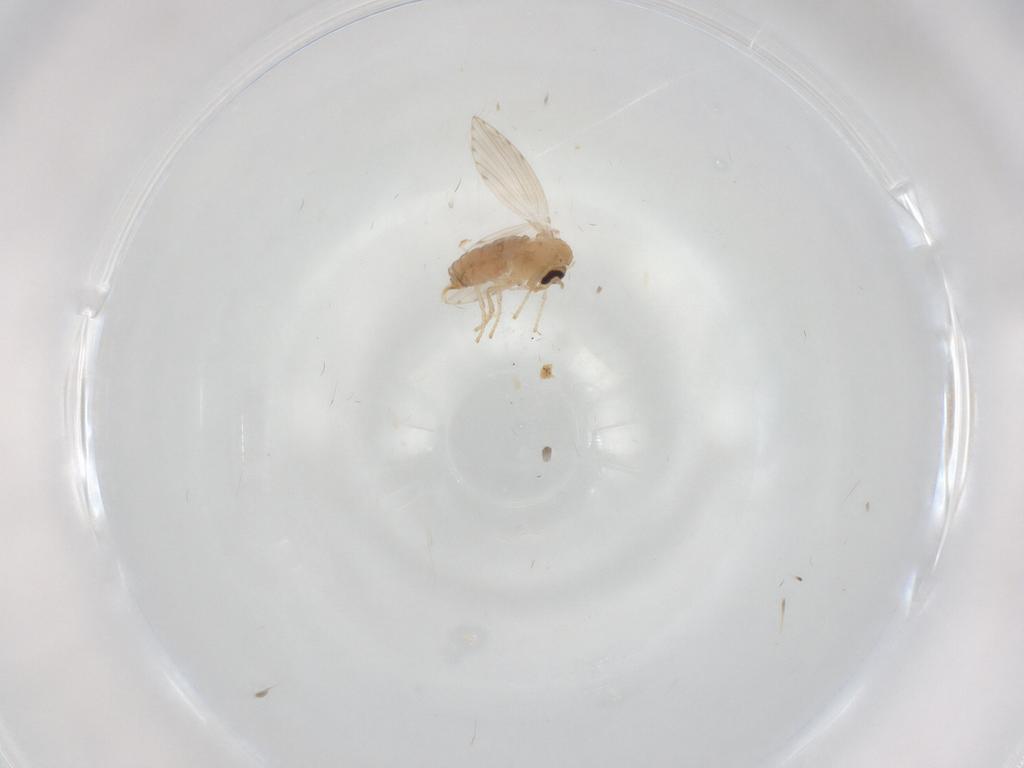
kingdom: Animalia
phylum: Arthropoda
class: Insecta
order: Diptera
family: Psychodidae
